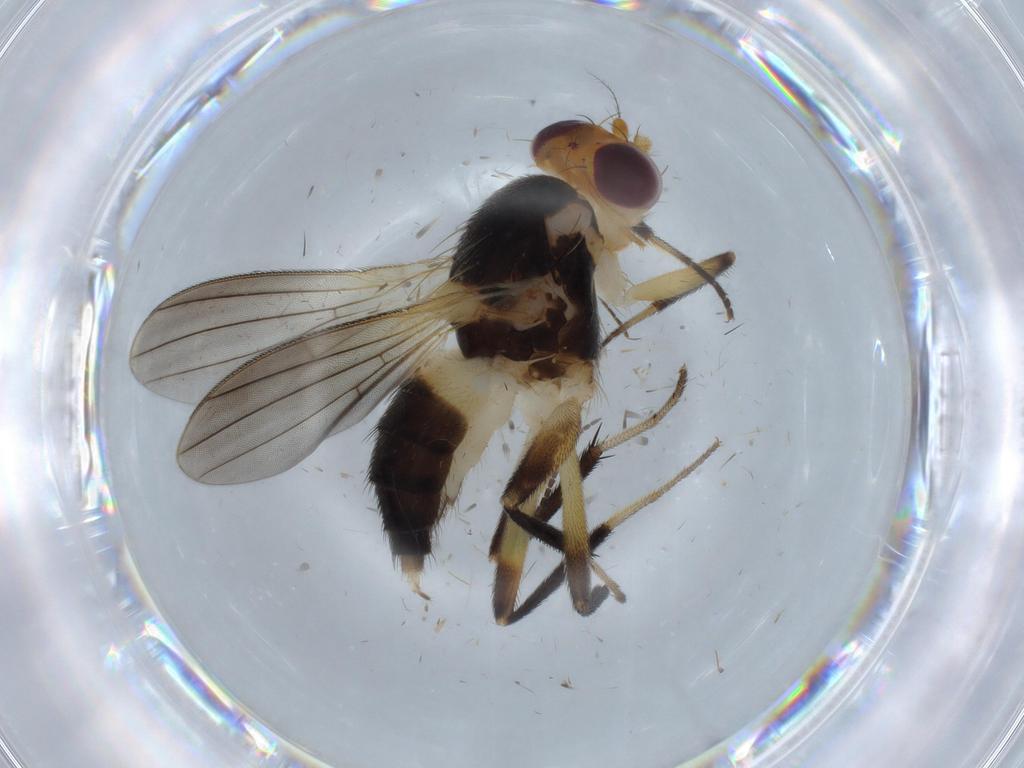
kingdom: Animalia
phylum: Arthropoda
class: Insecta
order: Diptera
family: Clusiidae
